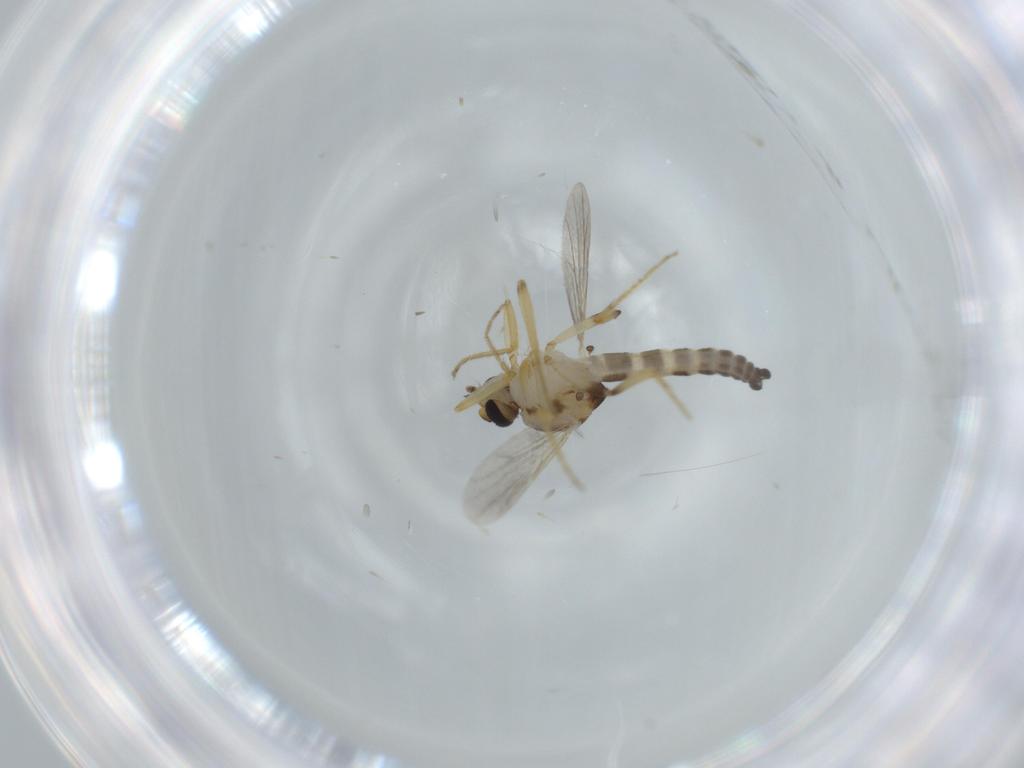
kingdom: Animalia
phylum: Arthropoda
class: Insecta
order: Diptera
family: Ceratopogonidae
